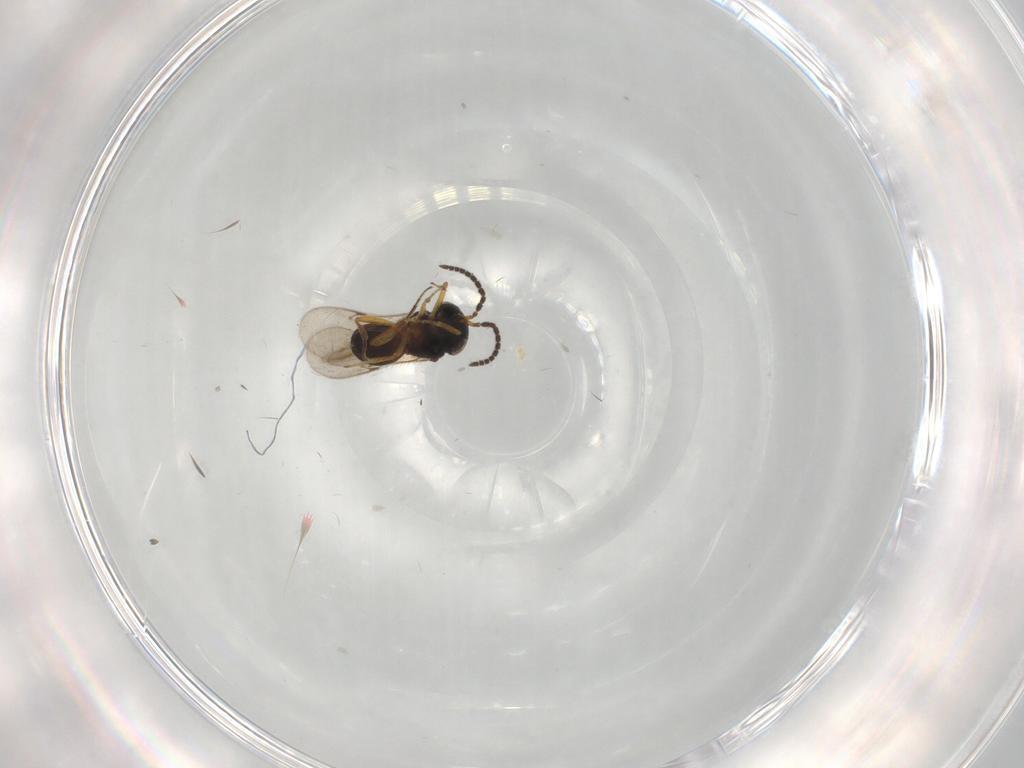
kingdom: Animalia
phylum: Arthropoda
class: Insecta
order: Hymenoptera
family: Scelionidae
